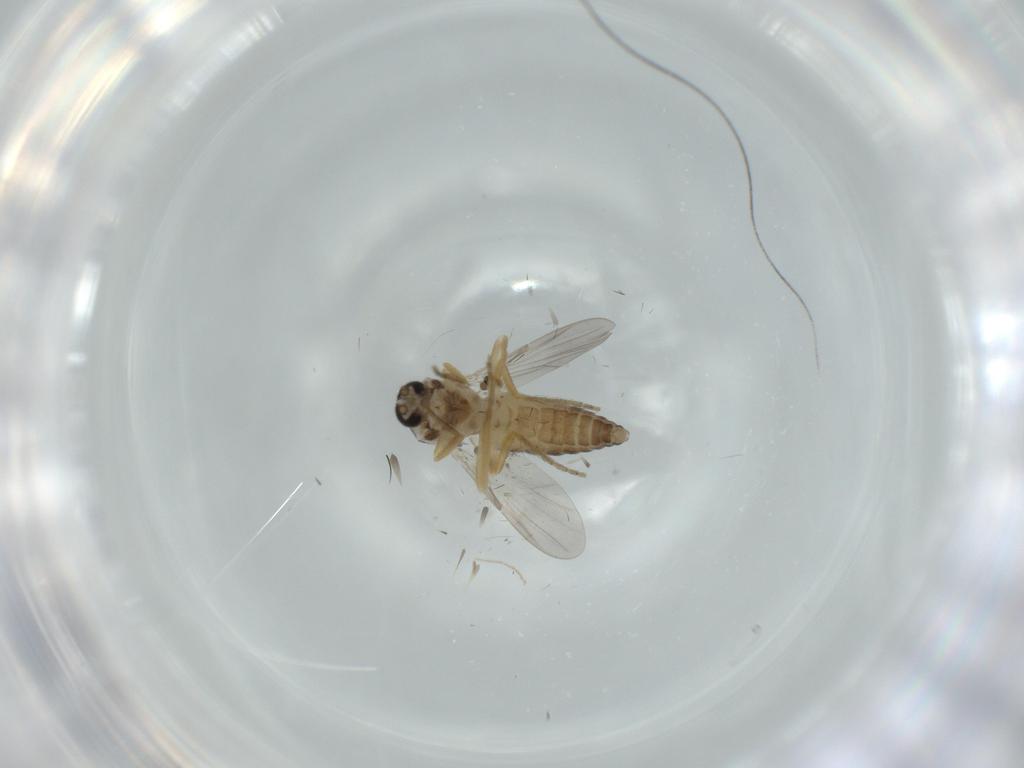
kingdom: Animalia
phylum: Arthropoda
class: Insecta
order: Diptera
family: Ceratopogonidae
